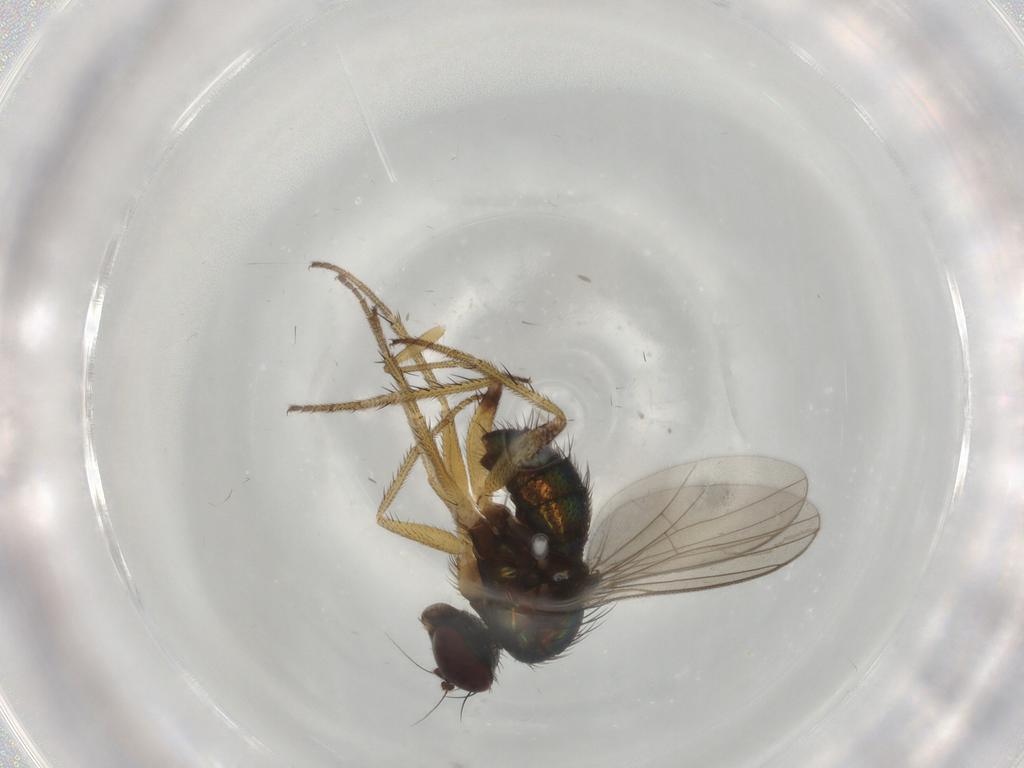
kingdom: Animalia
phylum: Arthropoda
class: Insecta
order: Diptera
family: Dolichopodidae
